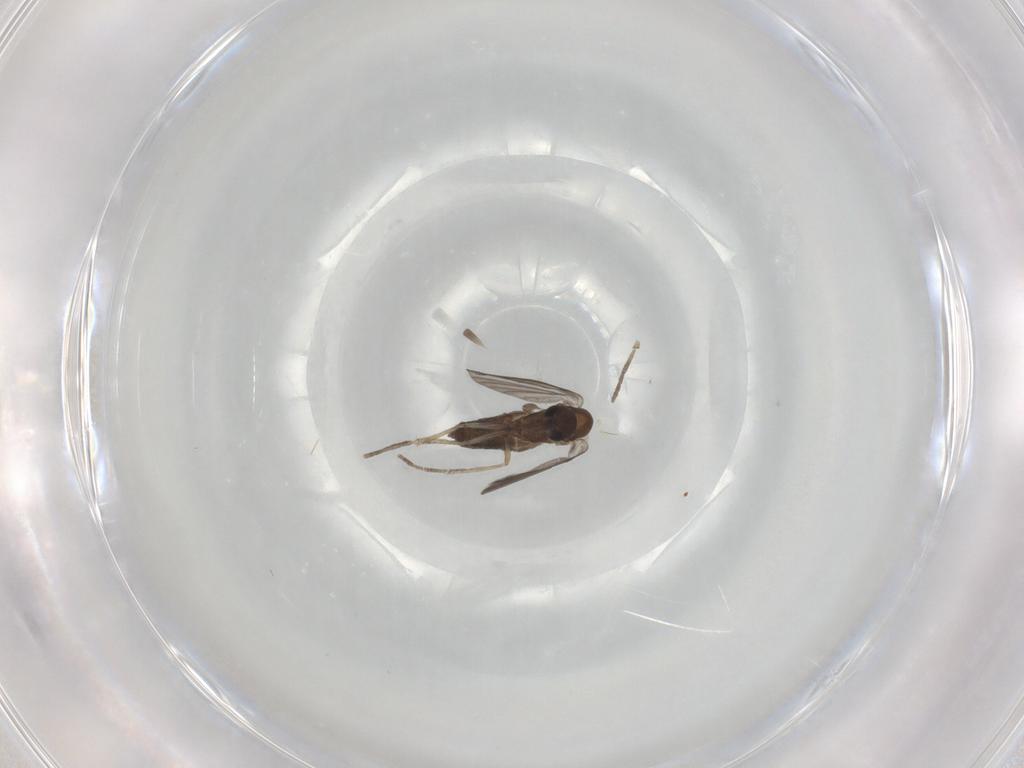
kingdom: Animalia
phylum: Arthropoda
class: Insecta
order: Diptera
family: Psychodidae
